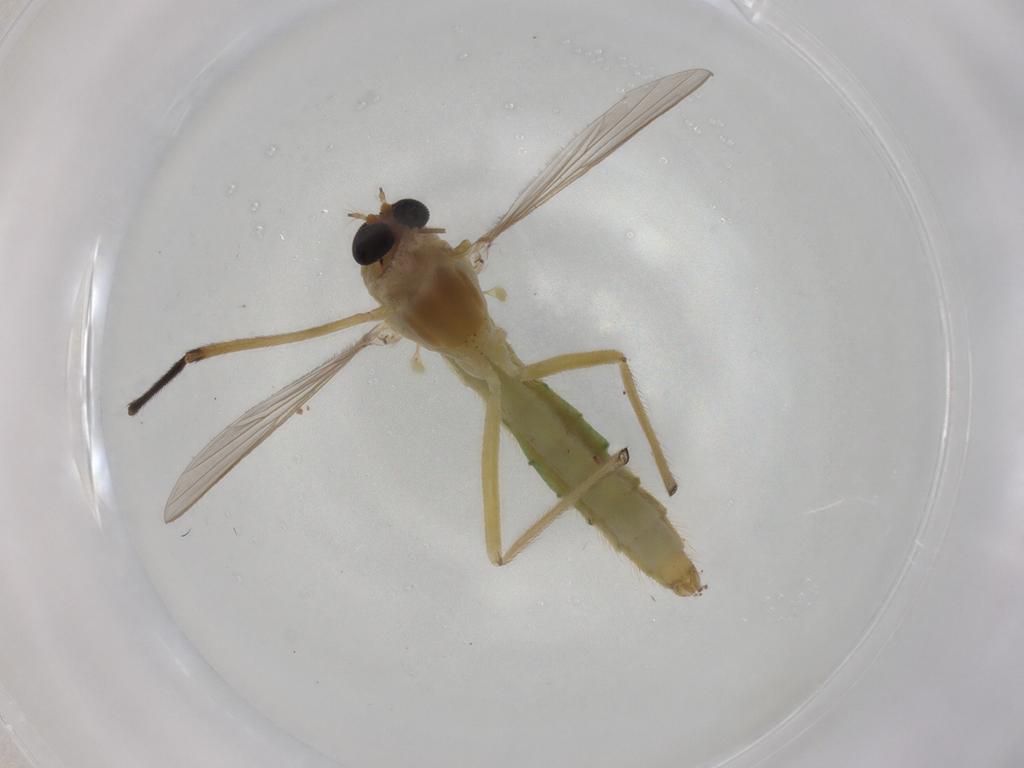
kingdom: Animalia
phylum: Arthropoda
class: Insecta
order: Diptera
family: Chironomidae
